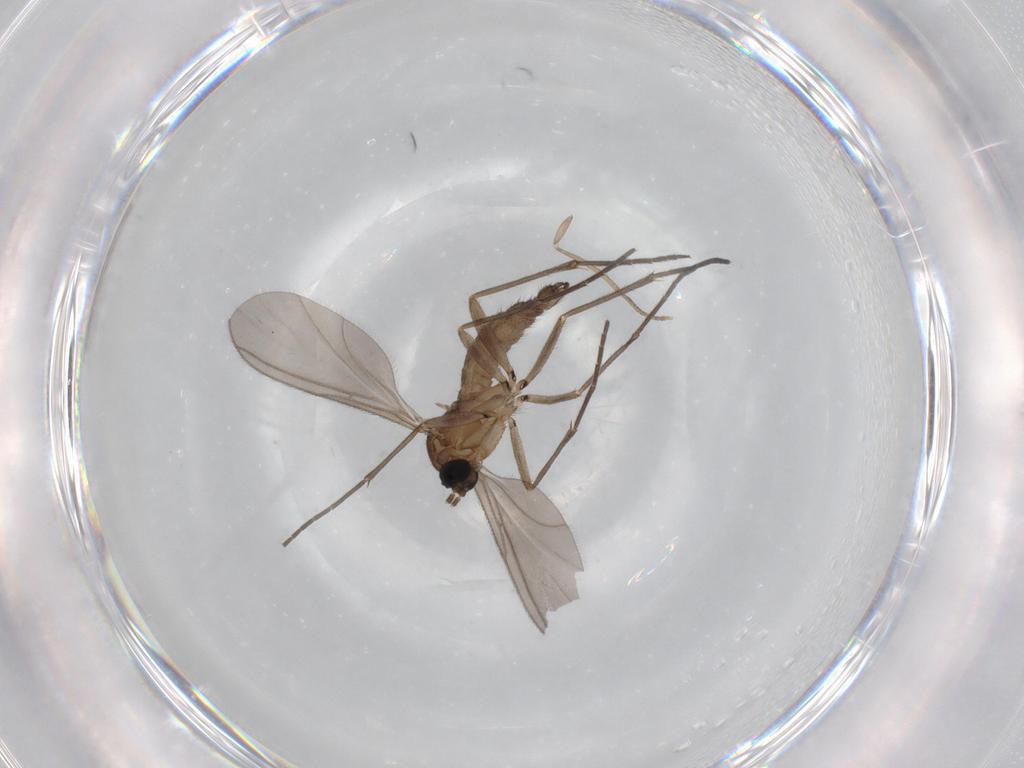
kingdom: Animalia
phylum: Arthropoda
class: Insecta
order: Diptera
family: Sciaridae
